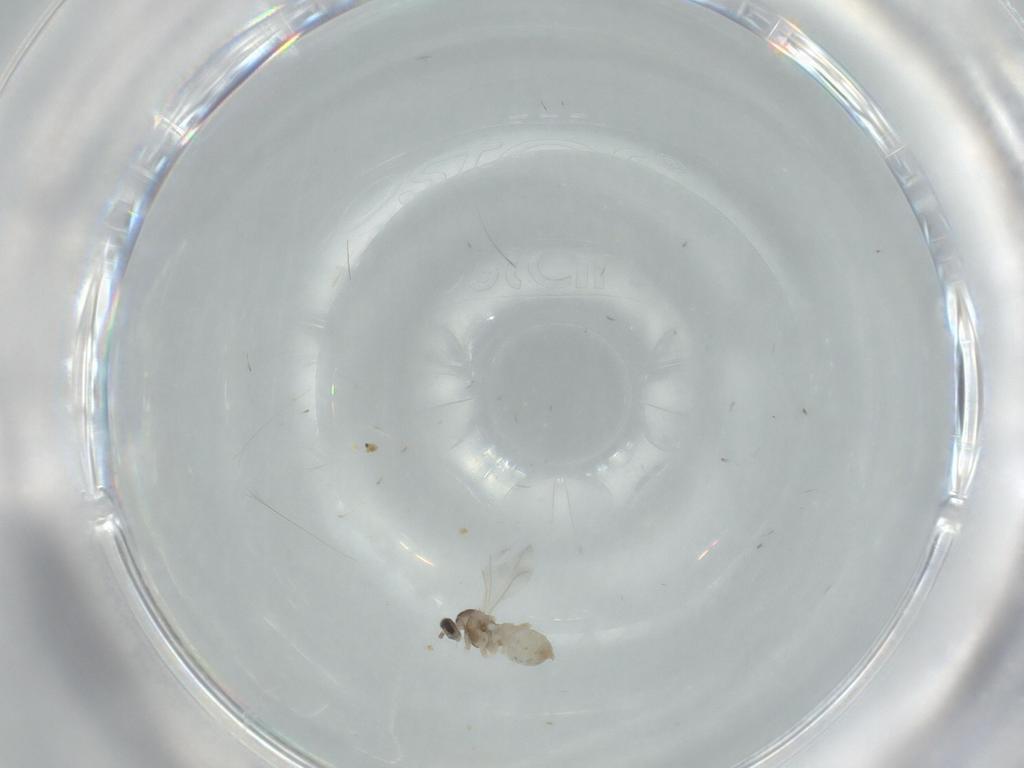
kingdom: Animalia
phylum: Arthropoda
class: Insecta
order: Diptera
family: Cecidomyiidae
